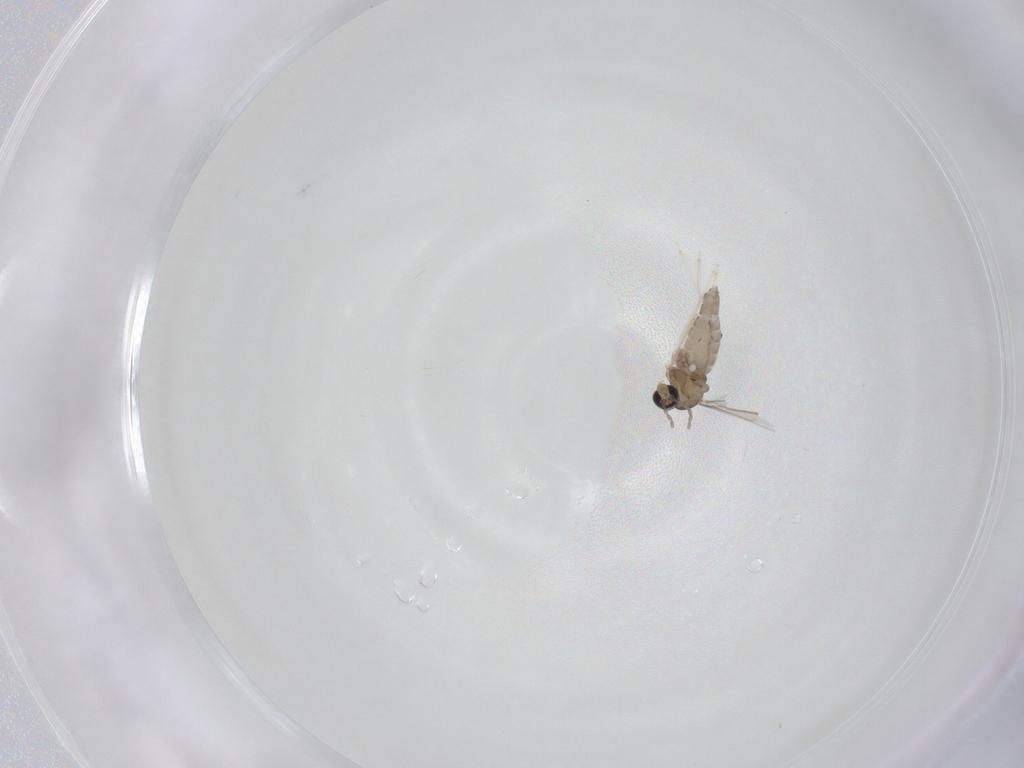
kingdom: Animalia
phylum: Arthropoda
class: Insecta
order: Diptera
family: Cecidomyiidae
